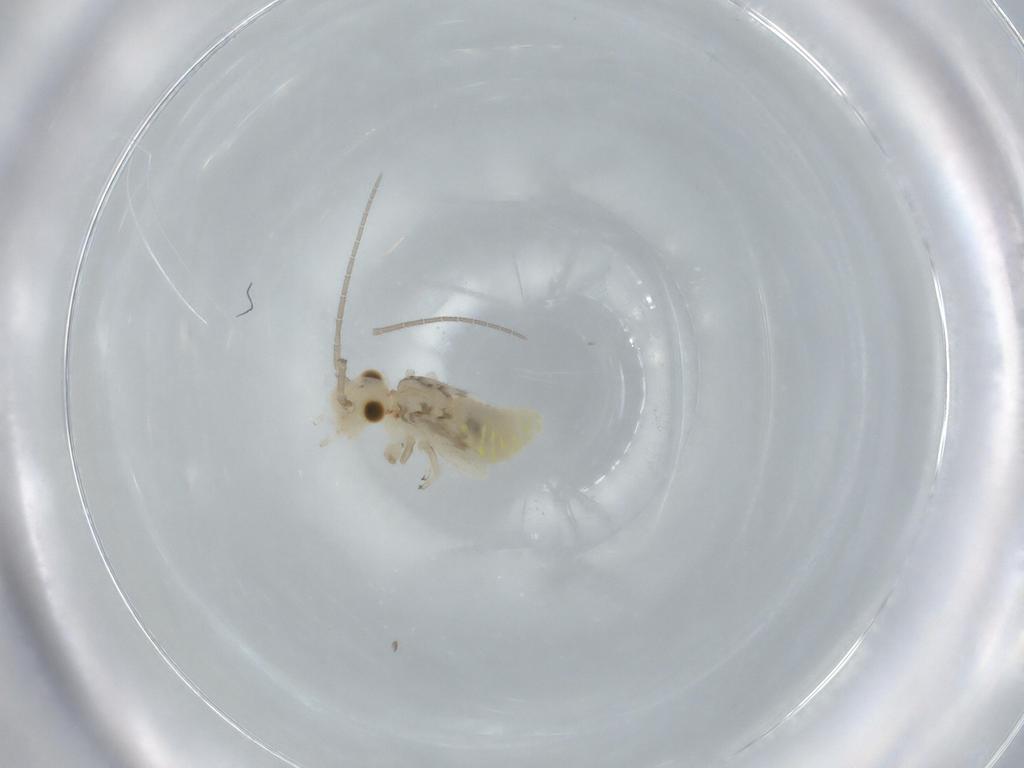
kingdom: Animalia
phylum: Arthropoda
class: Insecta
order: Psocodea
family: Caeciliusidae
